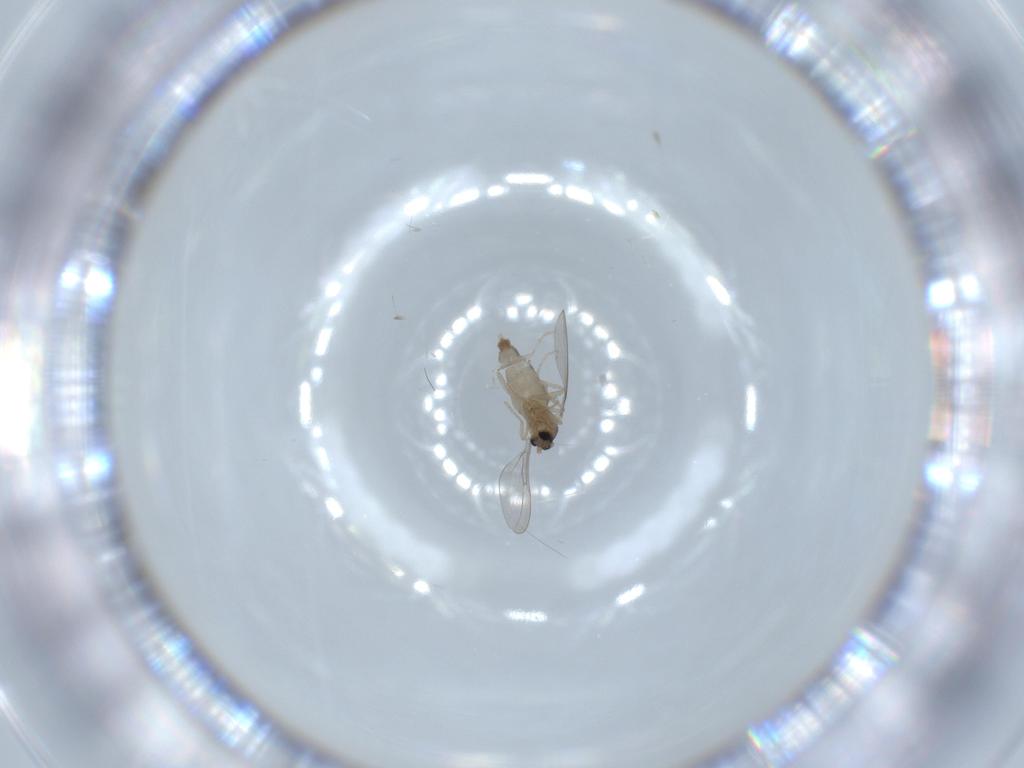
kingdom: Animalia
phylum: Arthropoda
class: Insecta
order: Diptera
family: Cecidomyiidae
